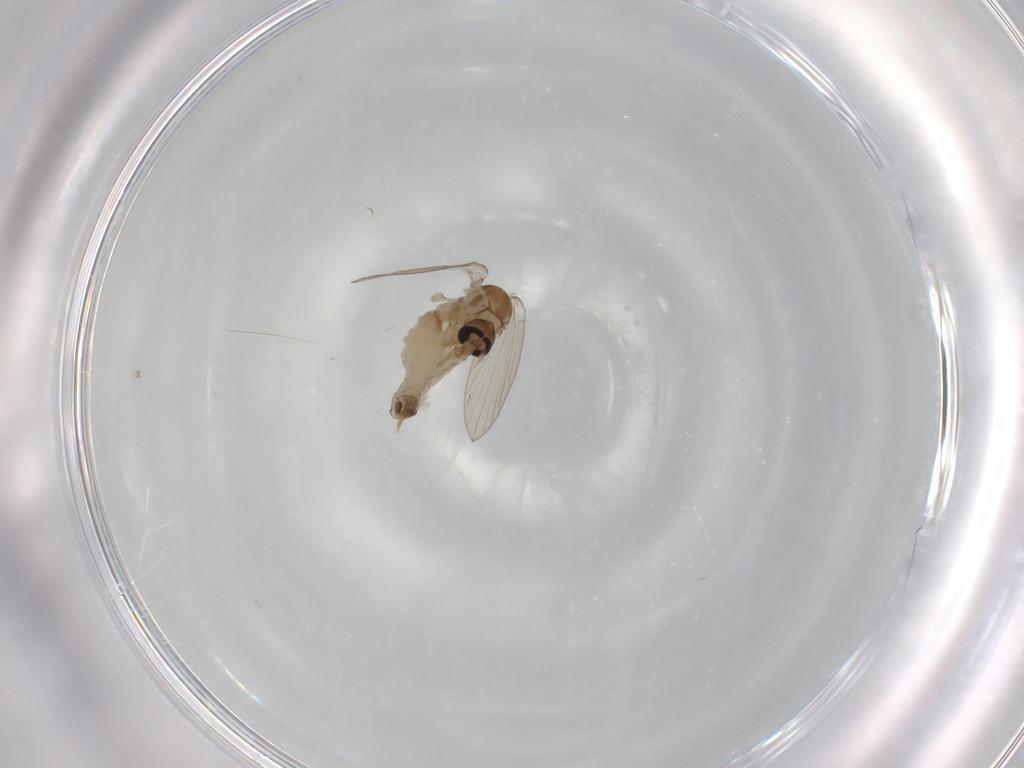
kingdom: Animalia
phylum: Arthropoda
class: Insecta
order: Diptera
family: Psychodidae
